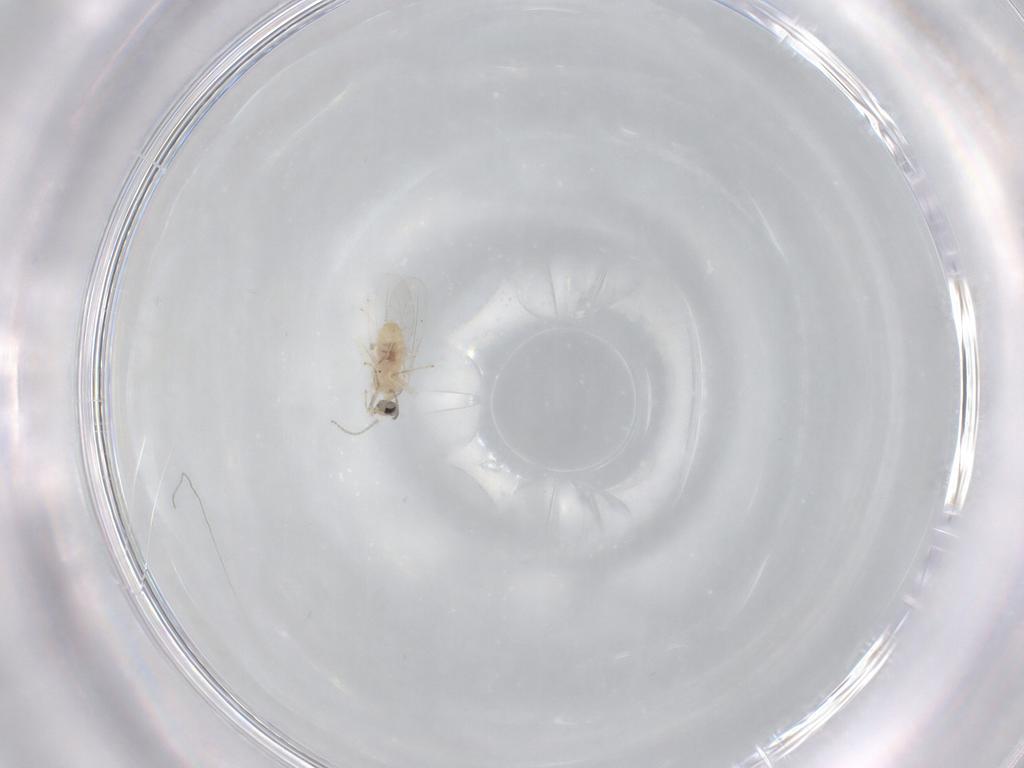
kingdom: Animalia
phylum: Arthropoda
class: Insecta
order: Diptera
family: Cecidomyiidae
